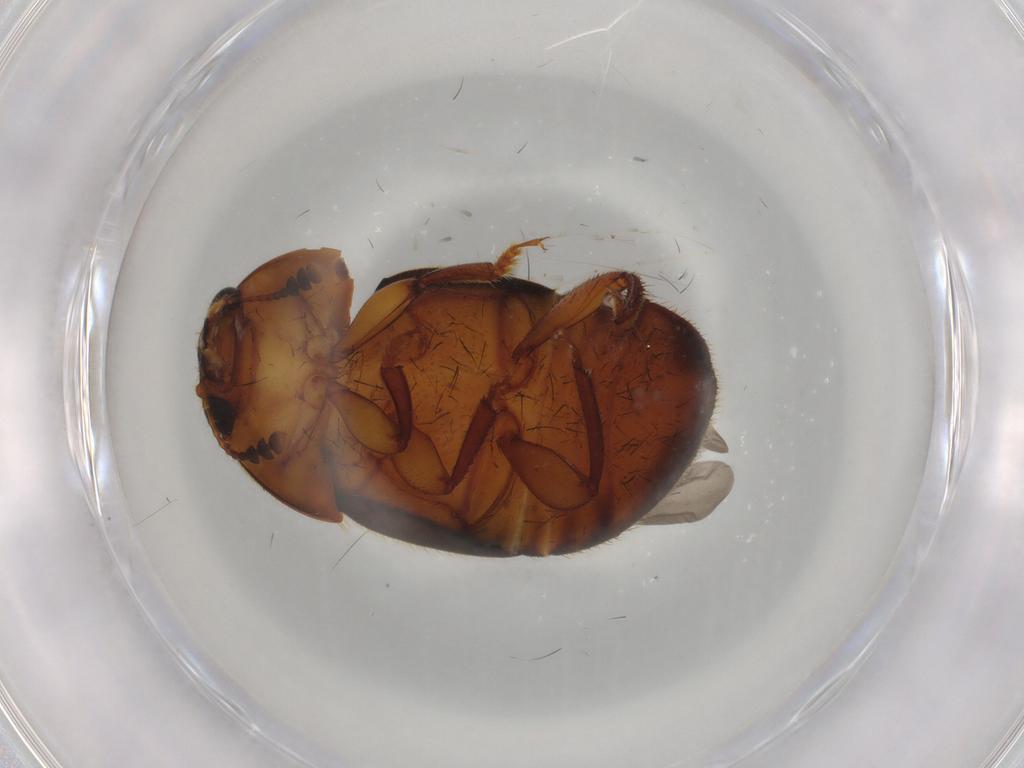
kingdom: Animalia
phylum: Arthropoda
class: Insecta
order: Coleoptera
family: Nitidulidae
